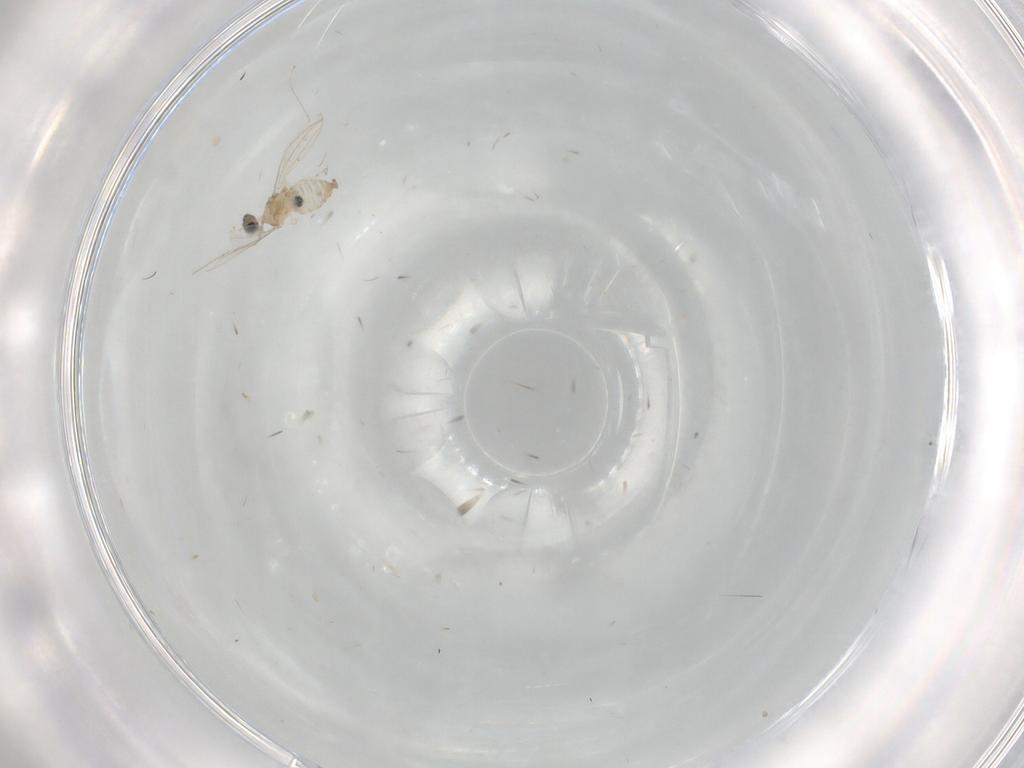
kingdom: Animalia
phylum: Arthropoda
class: Insecta
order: Diptera
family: Cecidomyiidae
